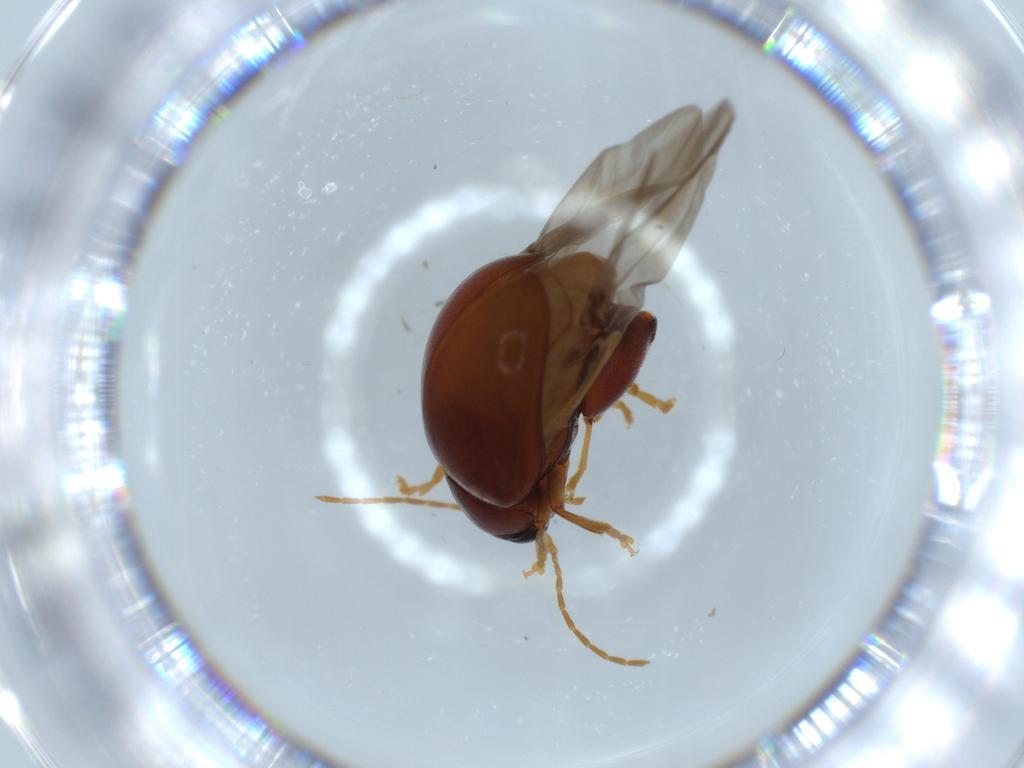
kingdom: Animalia
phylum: Arthropoda
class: Insecta
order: Coleoptera
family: Chrysomelidae
